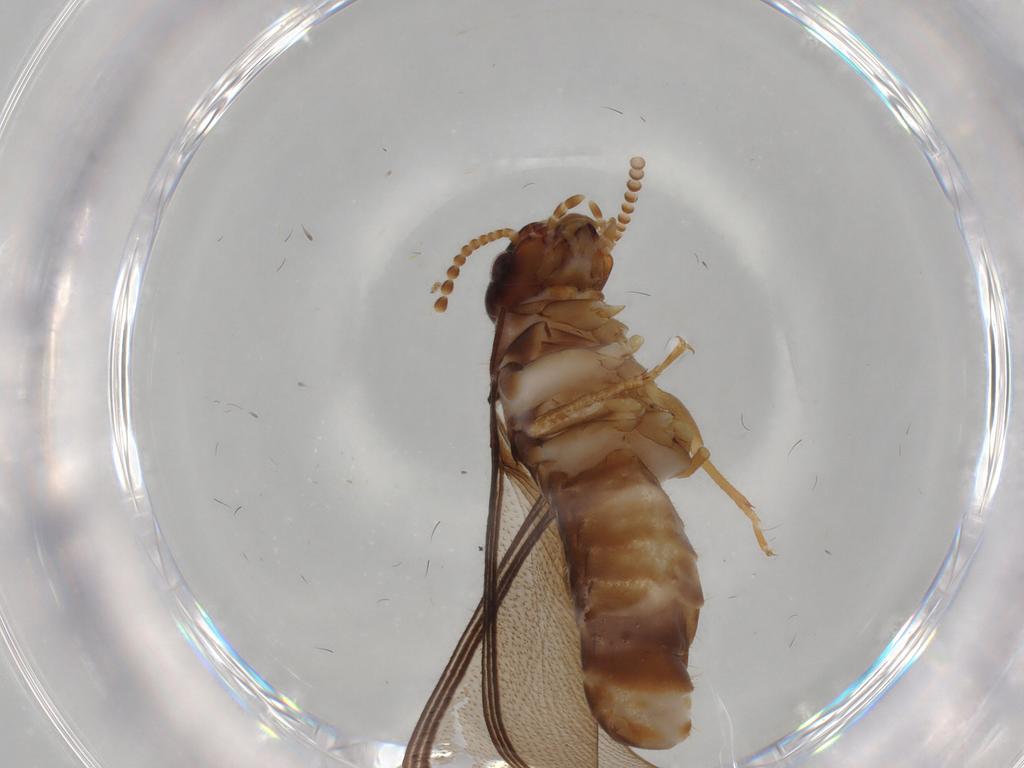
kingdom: Animalia
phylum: Arthropoda
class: Insecta
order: Blattodea
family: Kalotermitidae
